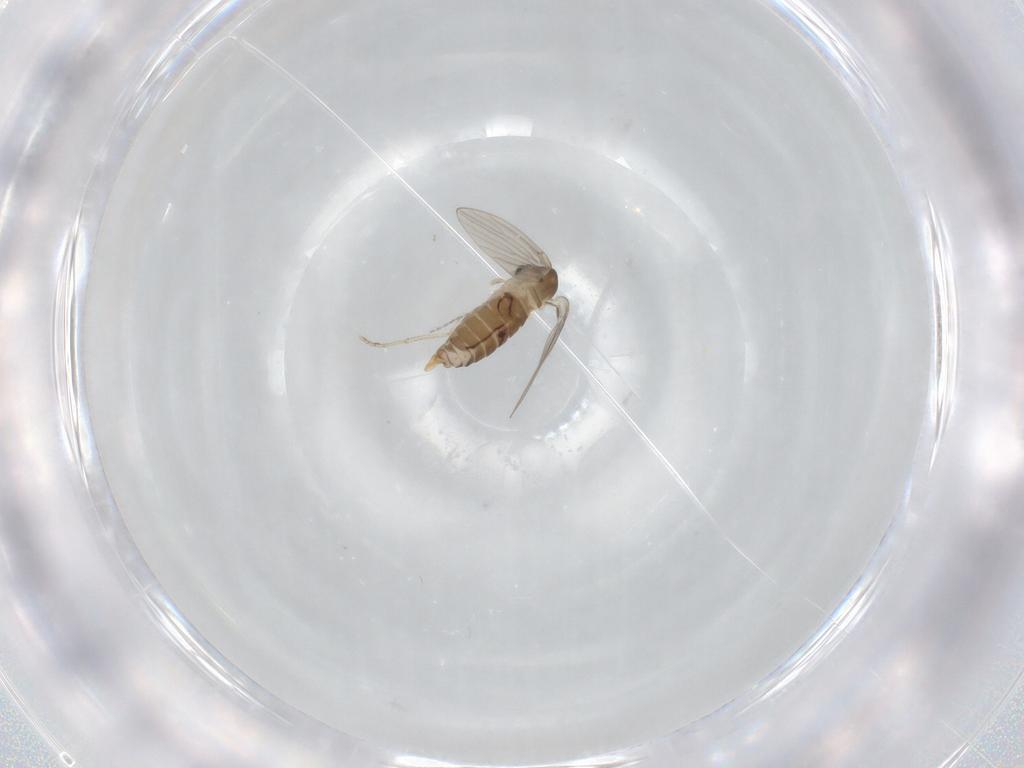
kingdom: Animalia
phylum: Arthropoda
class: Insecta
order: Diptera
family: Psychodidae
